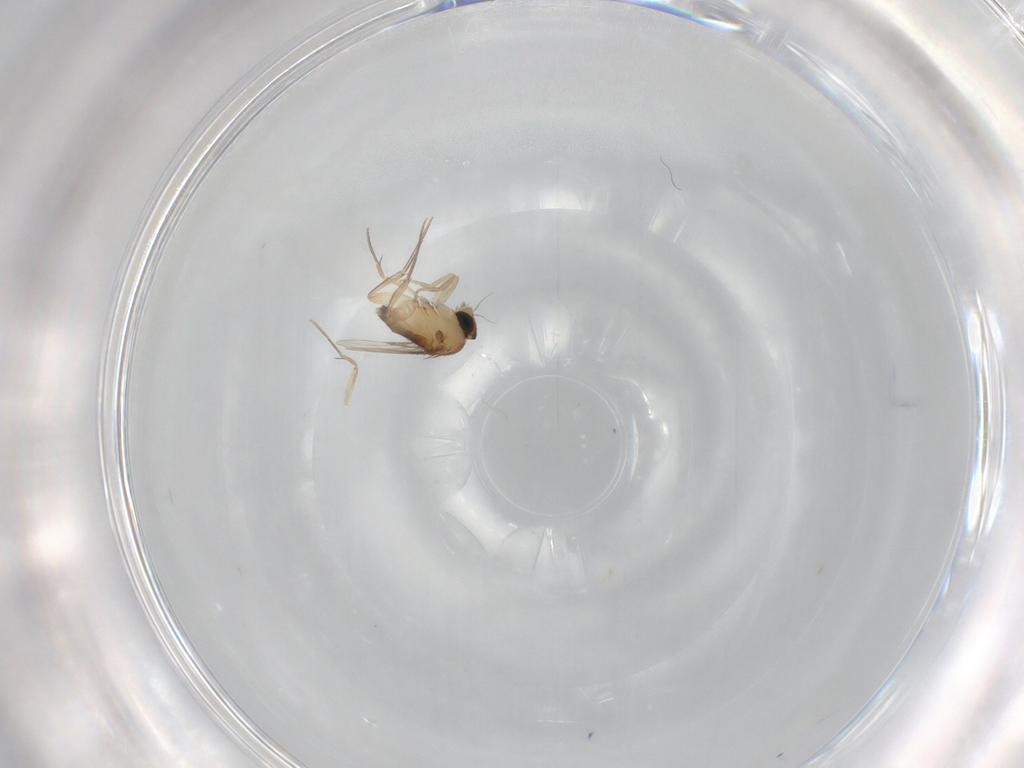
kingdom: Animalia
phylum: Arthropoda
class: Insecta
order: Diptera
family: Phoridae
